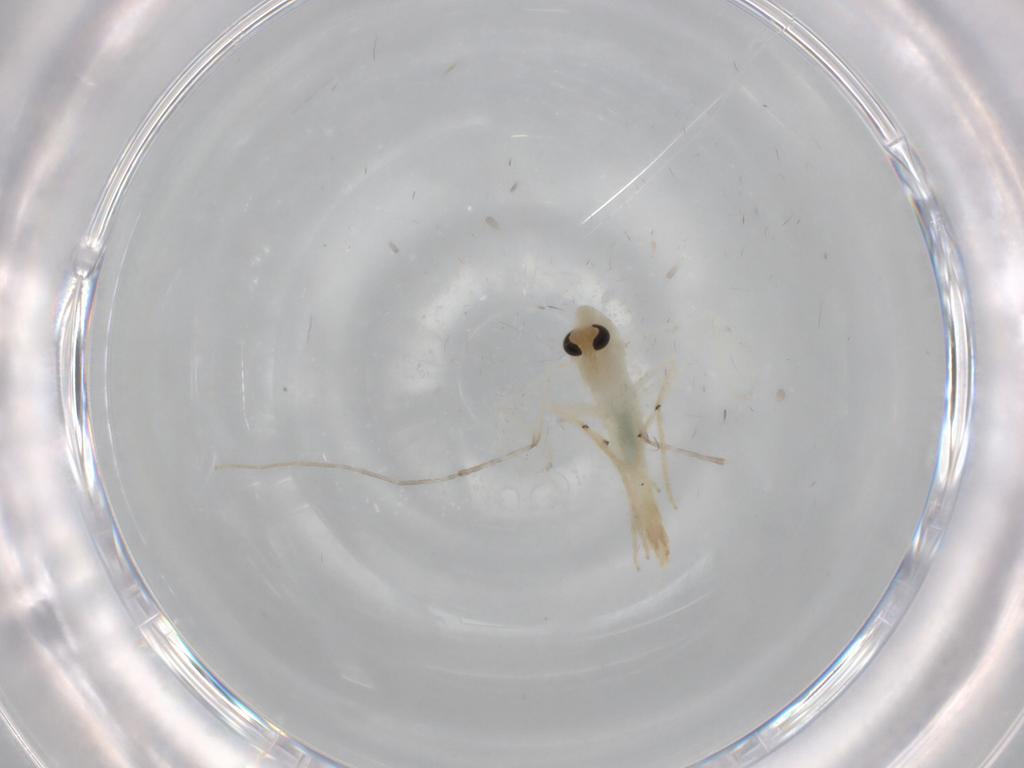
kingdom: Animalia
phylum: Arthropoda
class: Insecta
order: Diptera
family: Chironomidae
